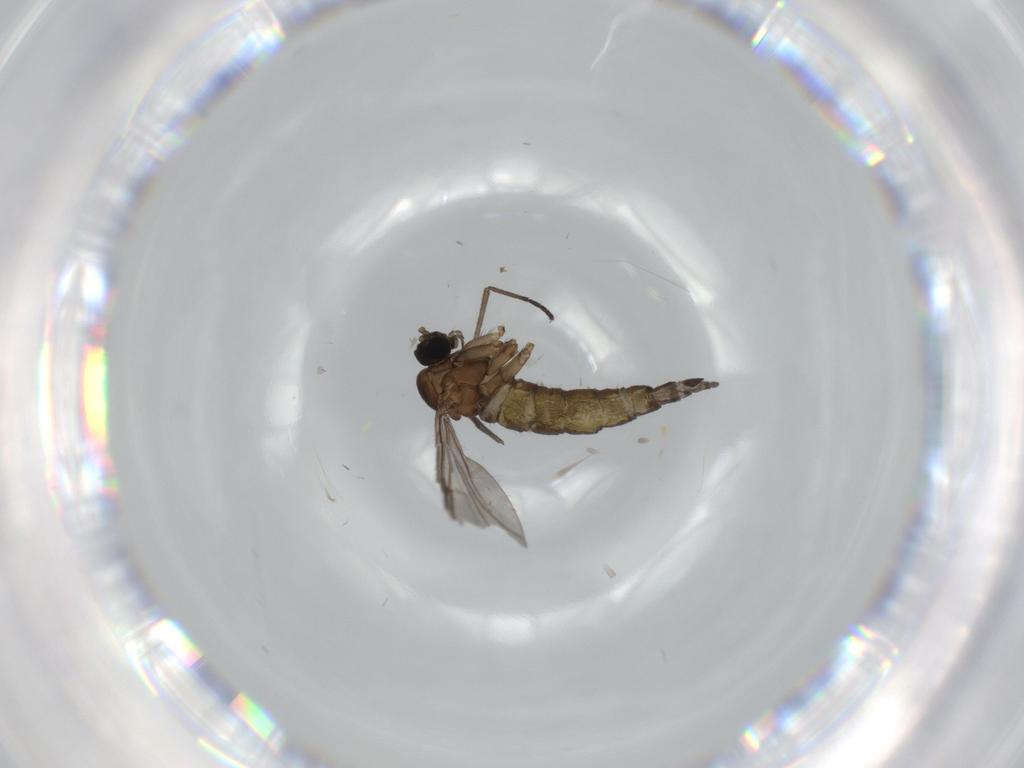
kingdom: Animalia
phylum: Arthropoda
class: Insecta
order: Diptera
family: Sciaridae
